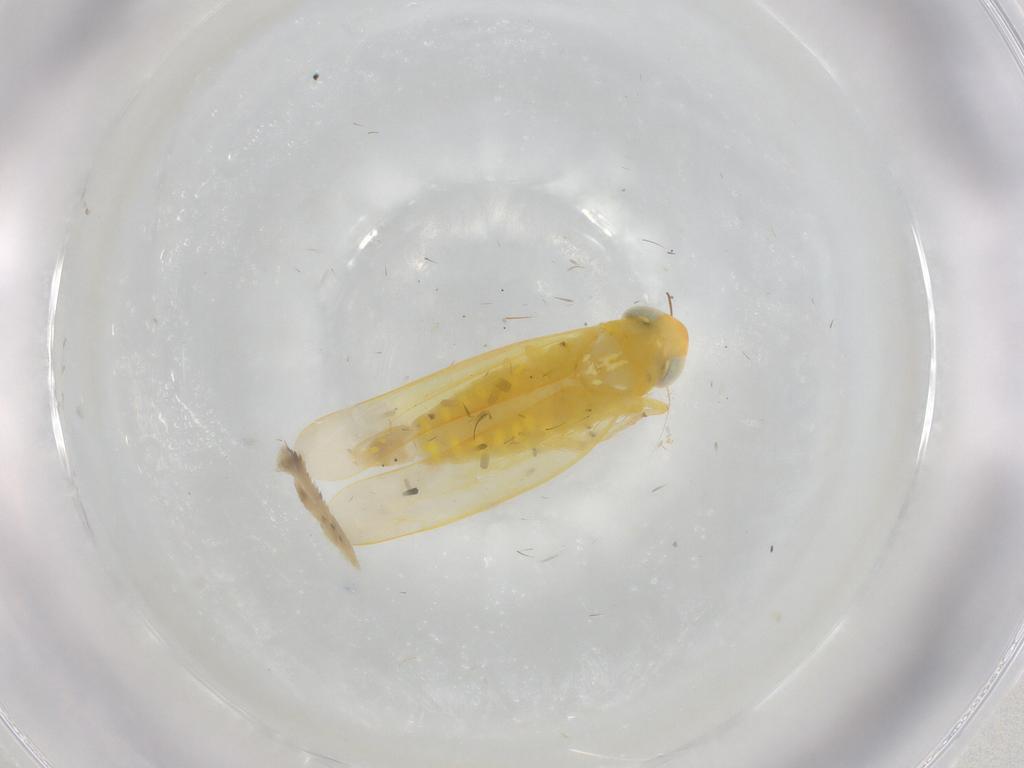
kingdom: Animalia
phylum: Arthropoda
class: Insecta
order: Hemiptera
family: Cicadellidae
